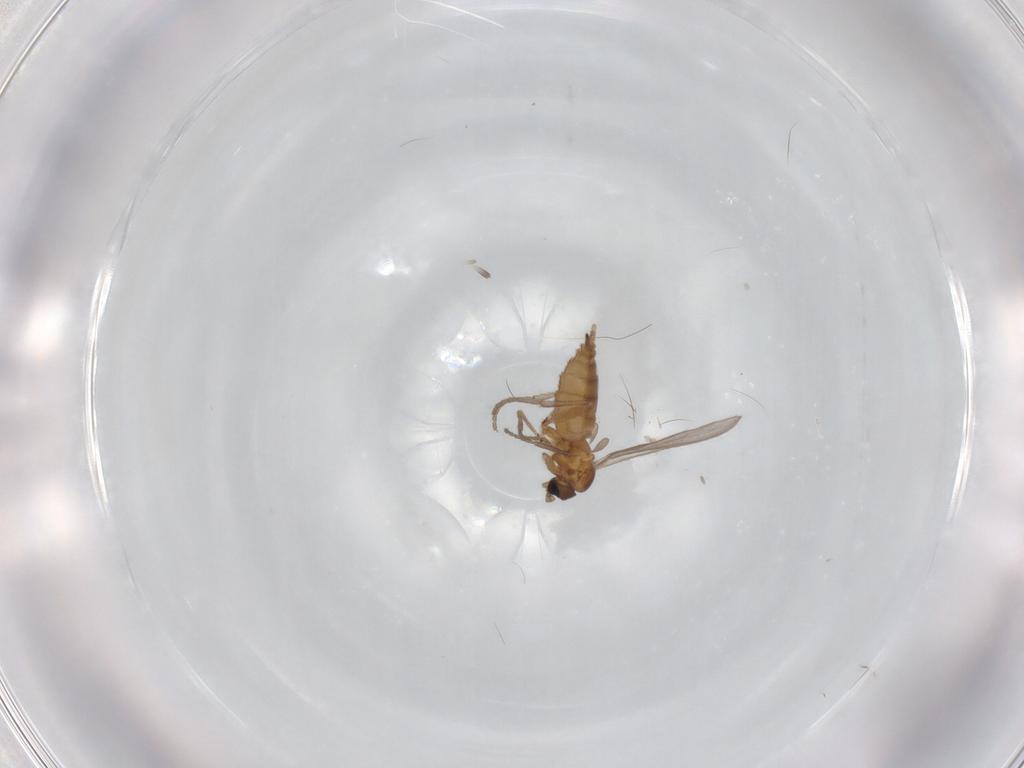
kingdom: Animalia
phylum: Arthropoda
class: Insecta
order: Diptera
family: Sciaridae
